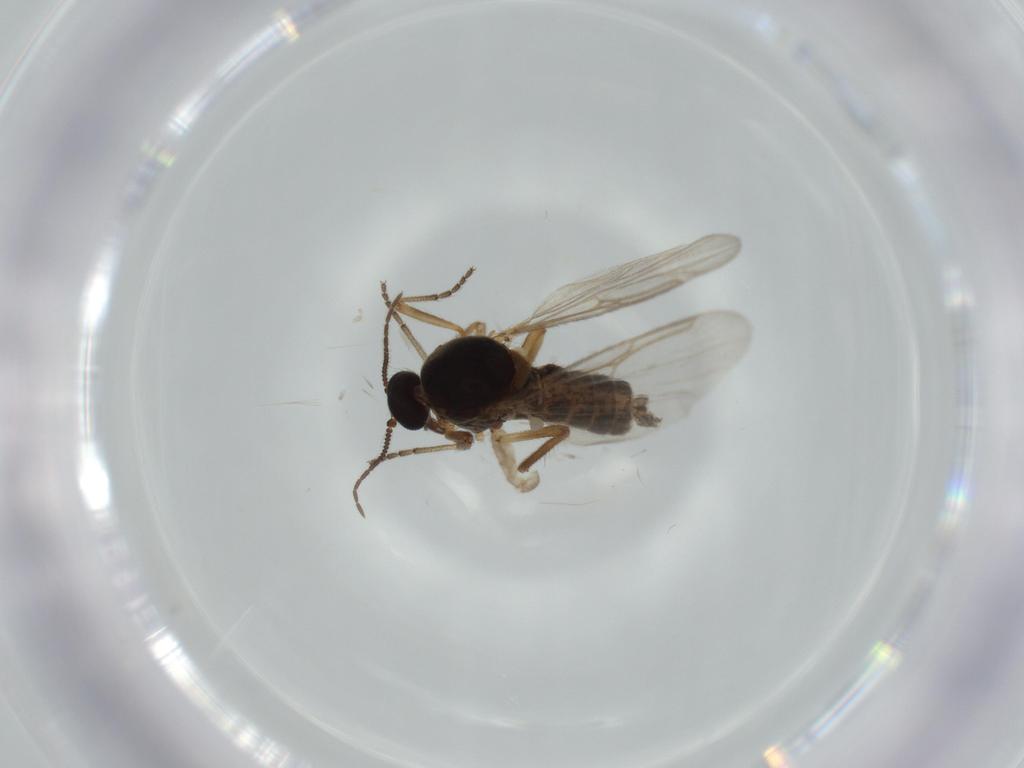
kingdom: Animalia
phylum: Arthropoda
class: Insecta
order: Diptera
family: Ceratopogonidae
